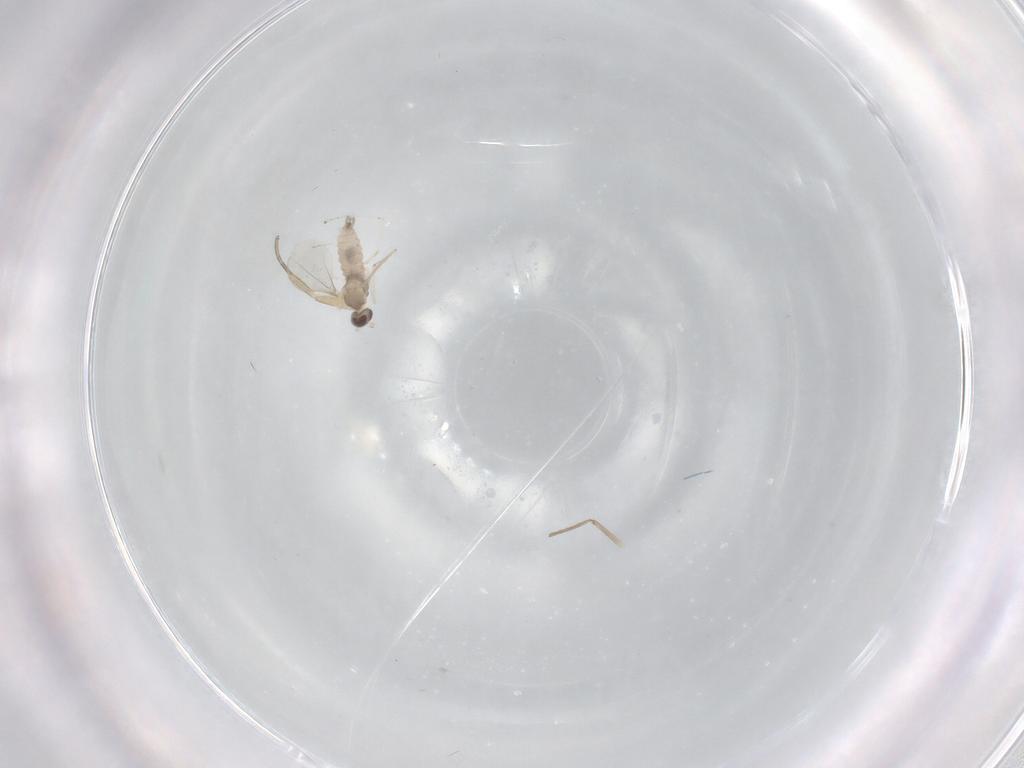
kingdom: Animalia
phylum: Arthropoda
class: Insecta
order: Diptera
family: Cecidomyiidae
